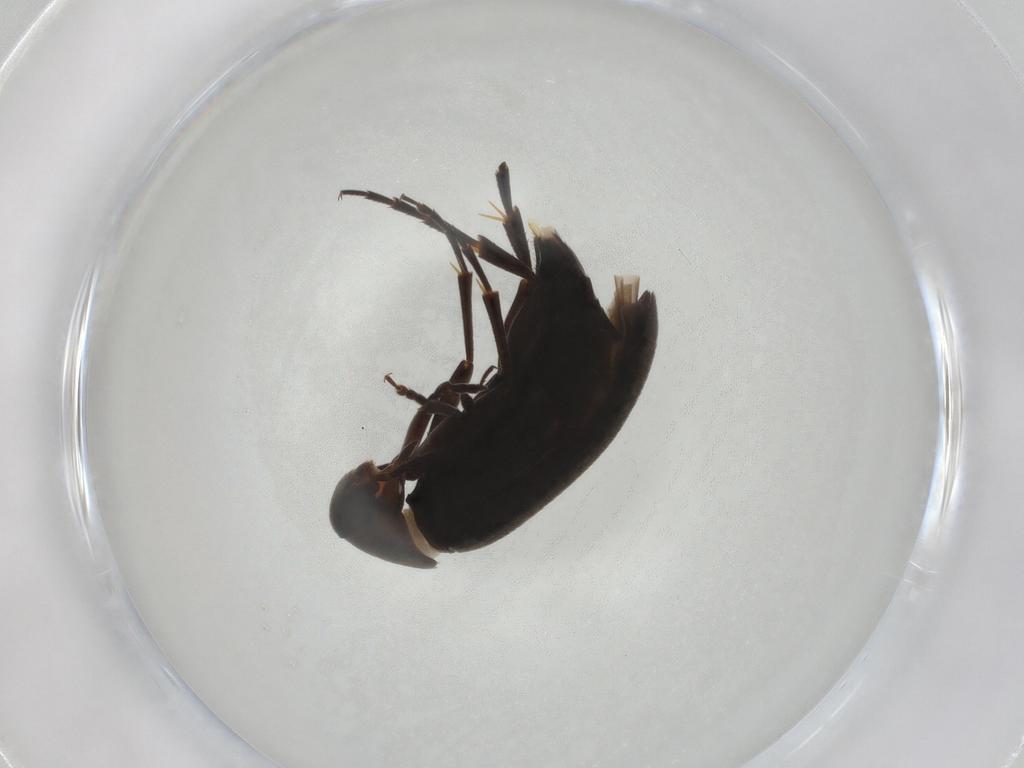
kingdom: Animalia
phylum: Arthropoda
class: Insecta
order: Coleoptera
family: Scraptiidae
